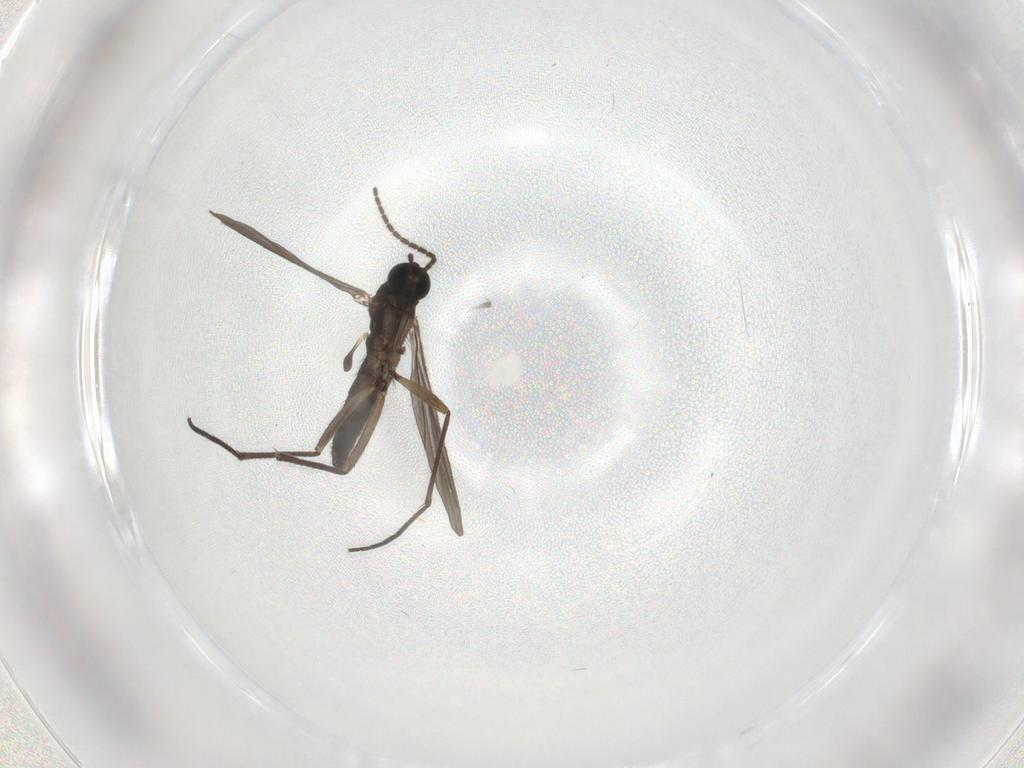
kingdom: Animalia
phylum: Arthropoda
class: Insecta
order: Diptera
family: Sciaridae
